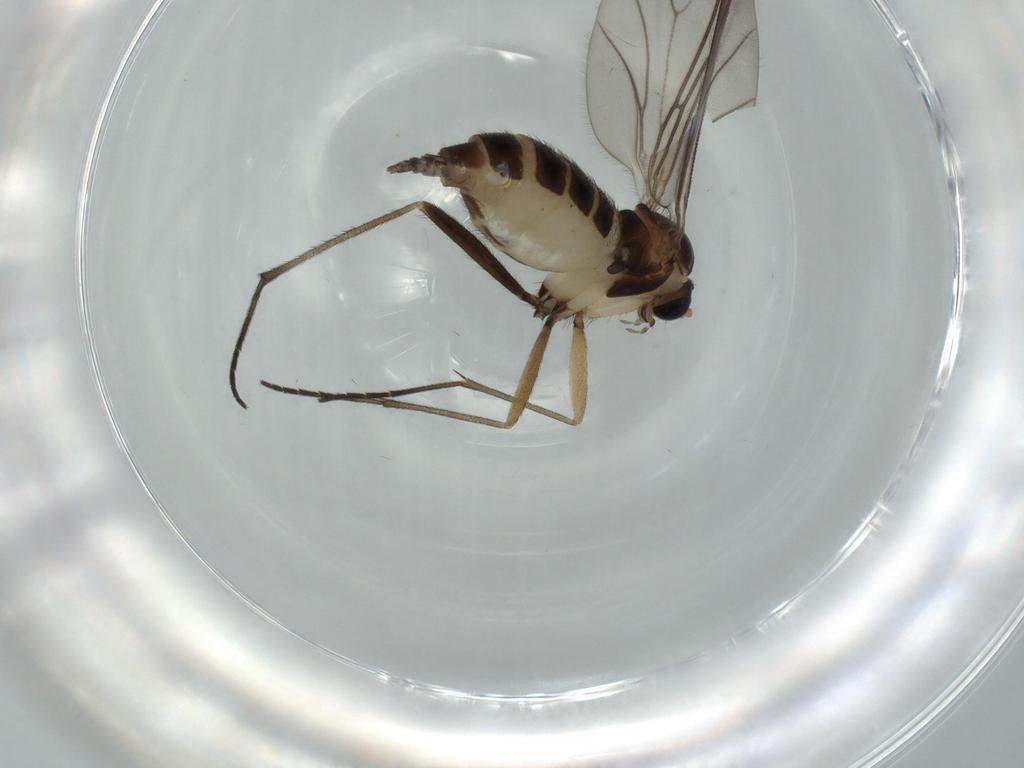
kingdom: Animalia
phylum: Arthropoda
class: Insecta
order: Diptera
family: Sciaridae
